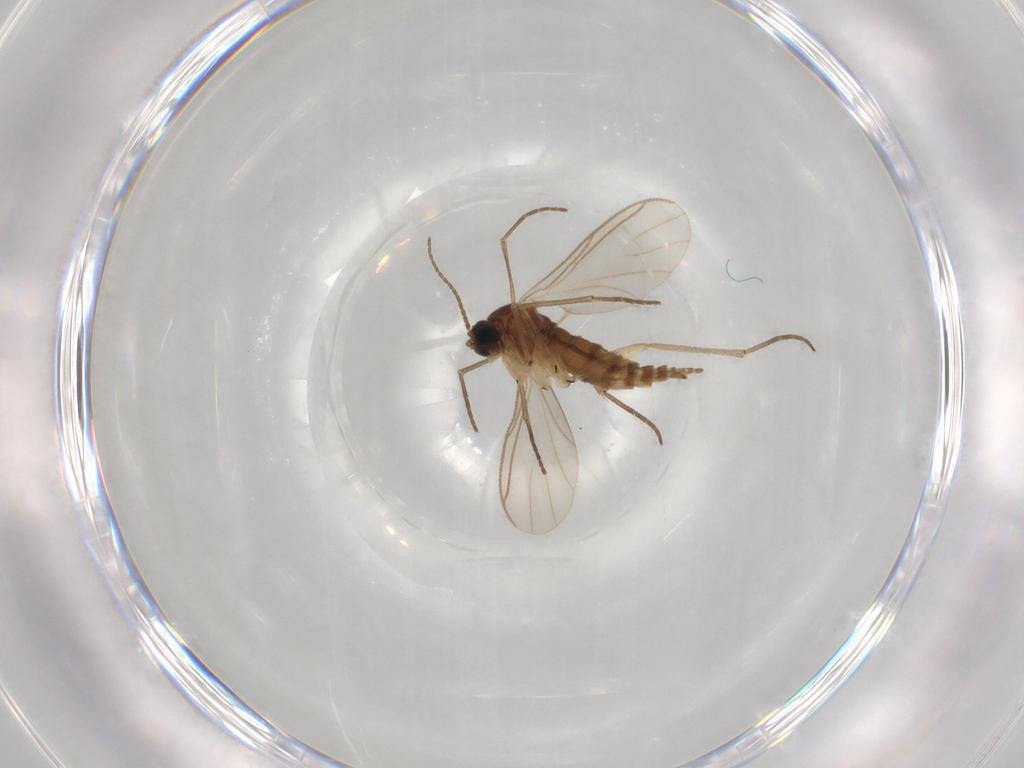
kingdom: Animalia
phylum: Arthropoda
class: Insecta
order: Diptera
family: Sciaridae
